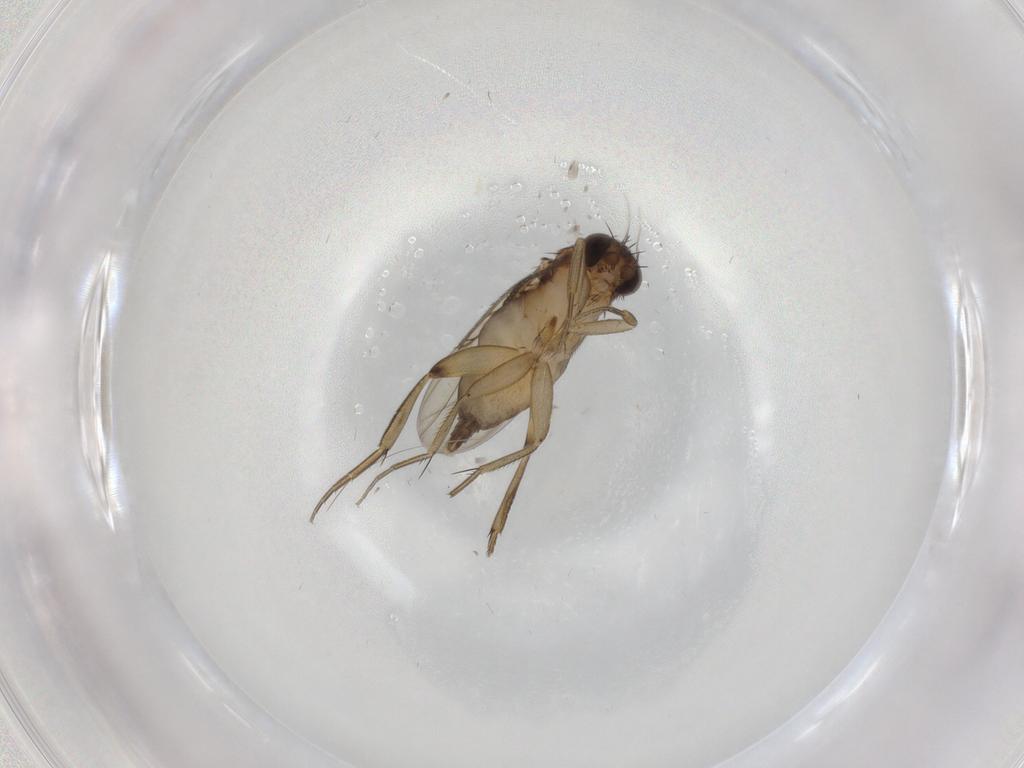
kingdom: Animalia
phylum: Arthropoda
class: Insecta
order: Diptera
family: Phoridae
